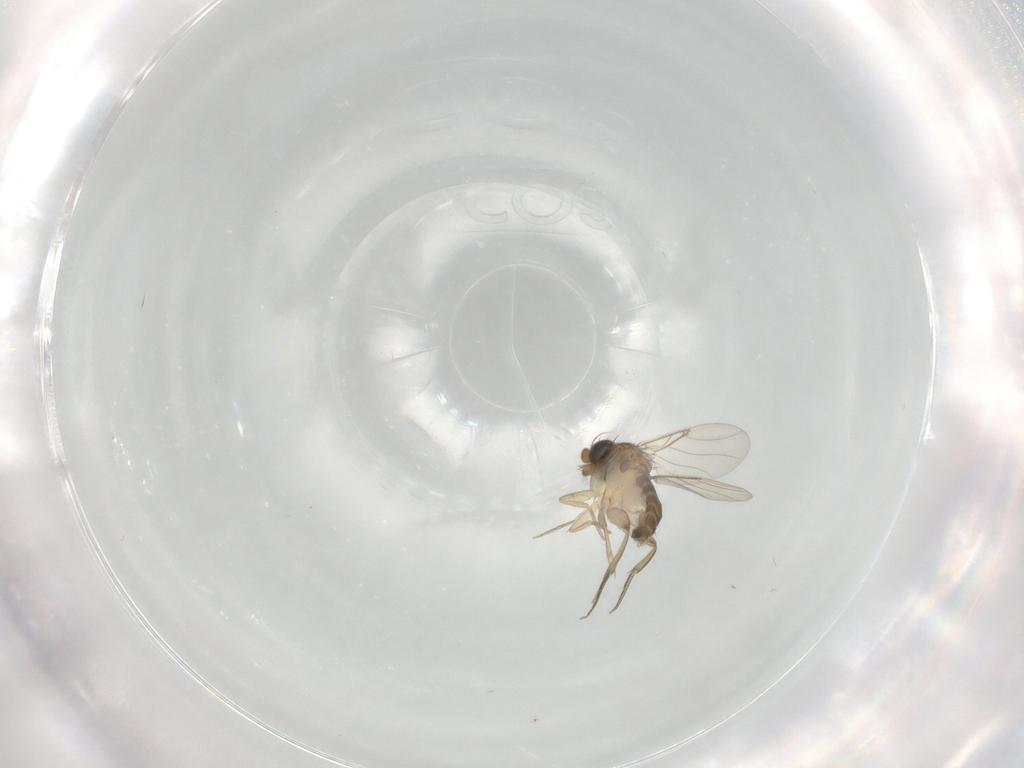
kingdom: Animalia
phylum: Arthropoda
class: Insecta
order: Diptera
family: Phoridae
